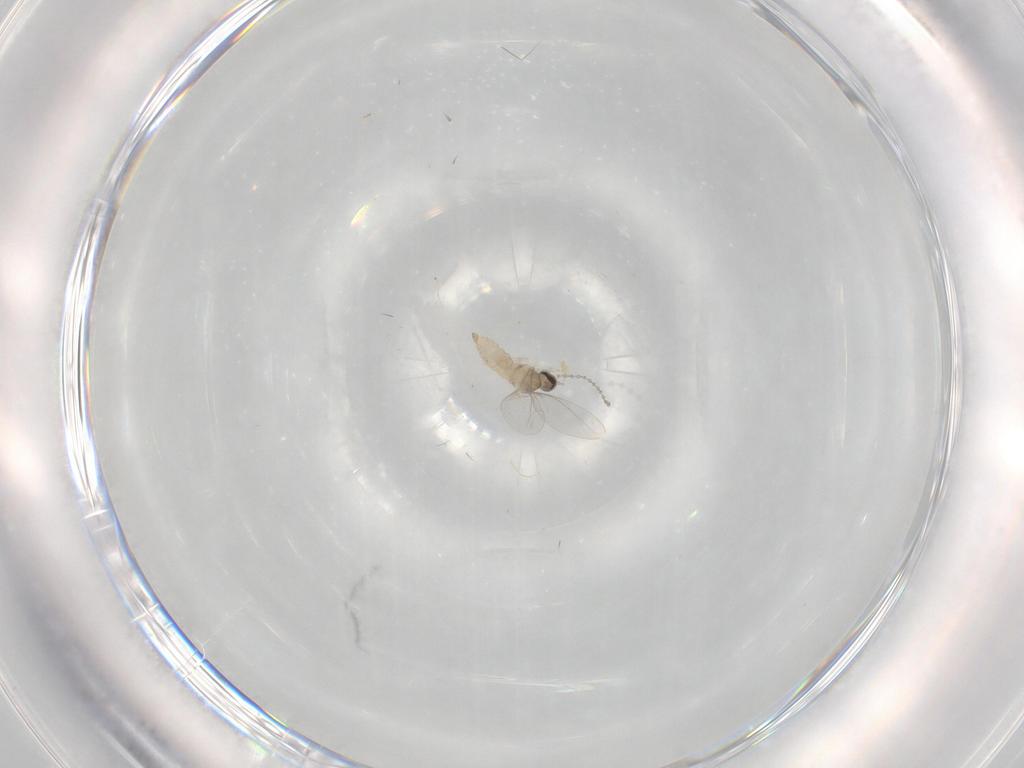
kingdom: Animalia
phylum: Arthropoda
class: Insecta
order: Diptera
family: Cecidomyiidae
